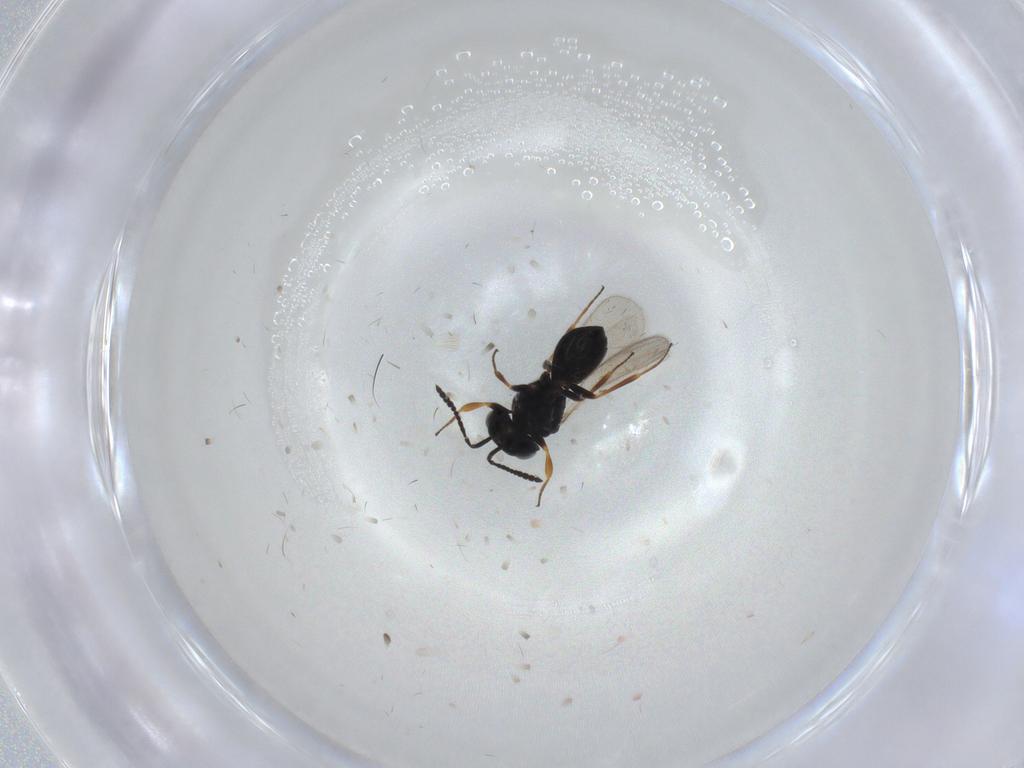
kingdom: Animalia
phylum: Arthropoda
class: Insecta
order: Hymenoptera
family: Scelionidae
